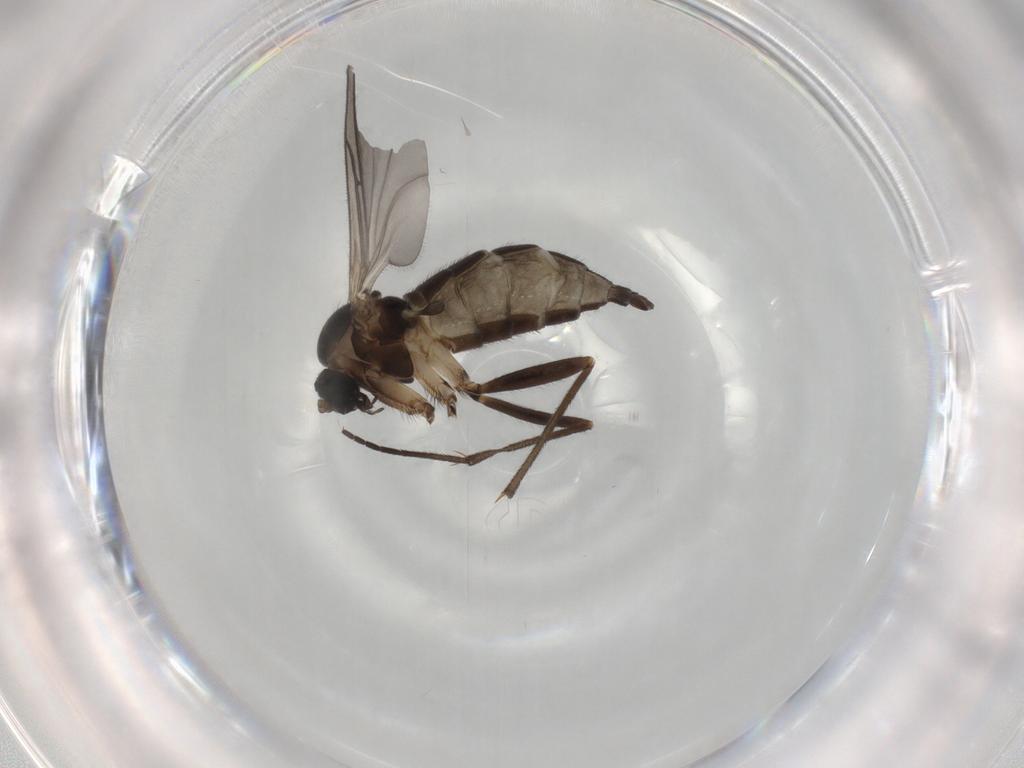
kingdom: Animalia
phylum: Arthropoda
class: Insecta
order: Diptera
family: Sciaridae
